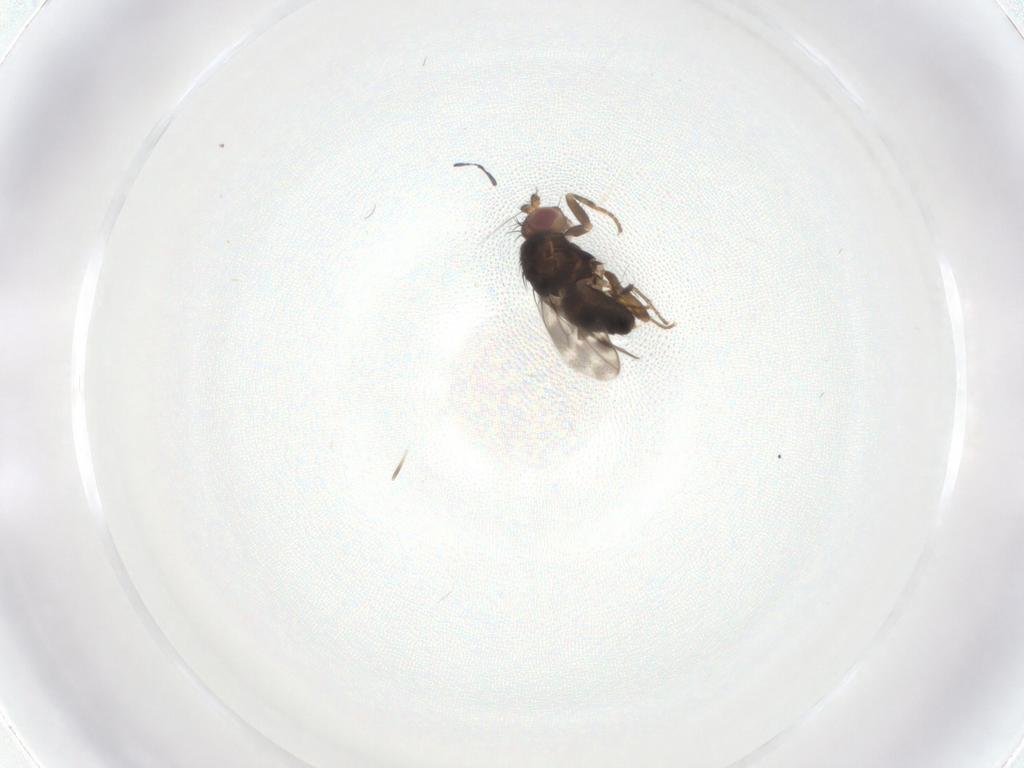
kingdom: Animalia
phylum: Arthropoda
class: Insecta
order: Diptera
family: Sphaeroceridae
